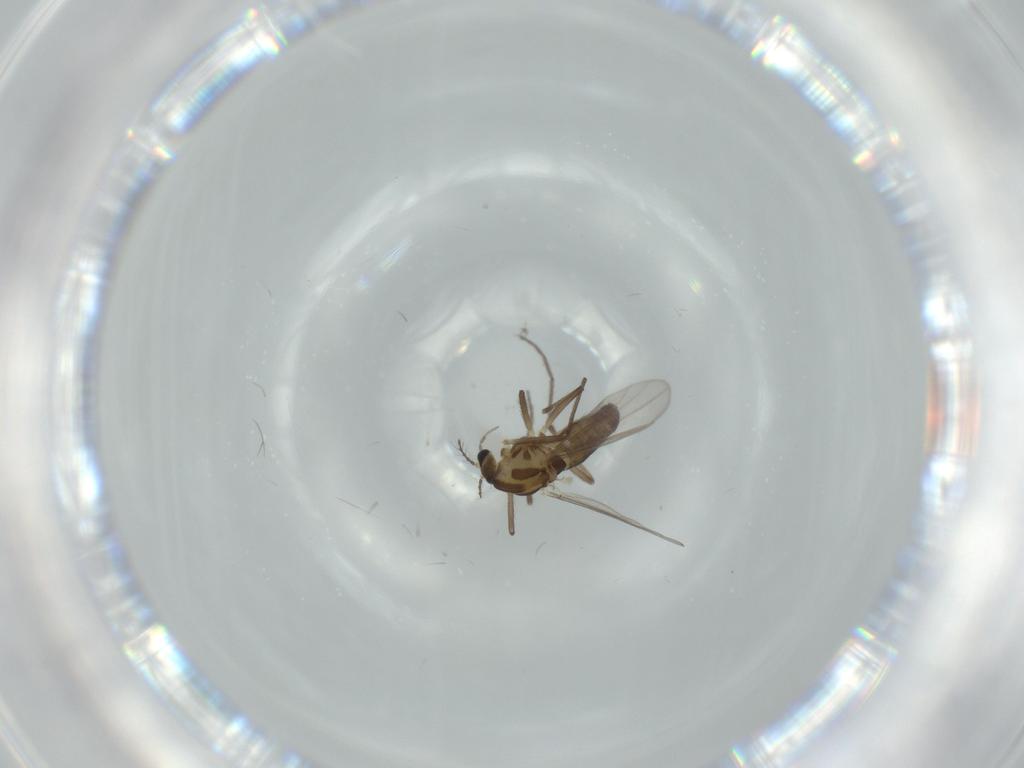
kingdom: Animalia
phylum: Arthropoda
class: Insecta
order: Diptera
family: Chironomidae
